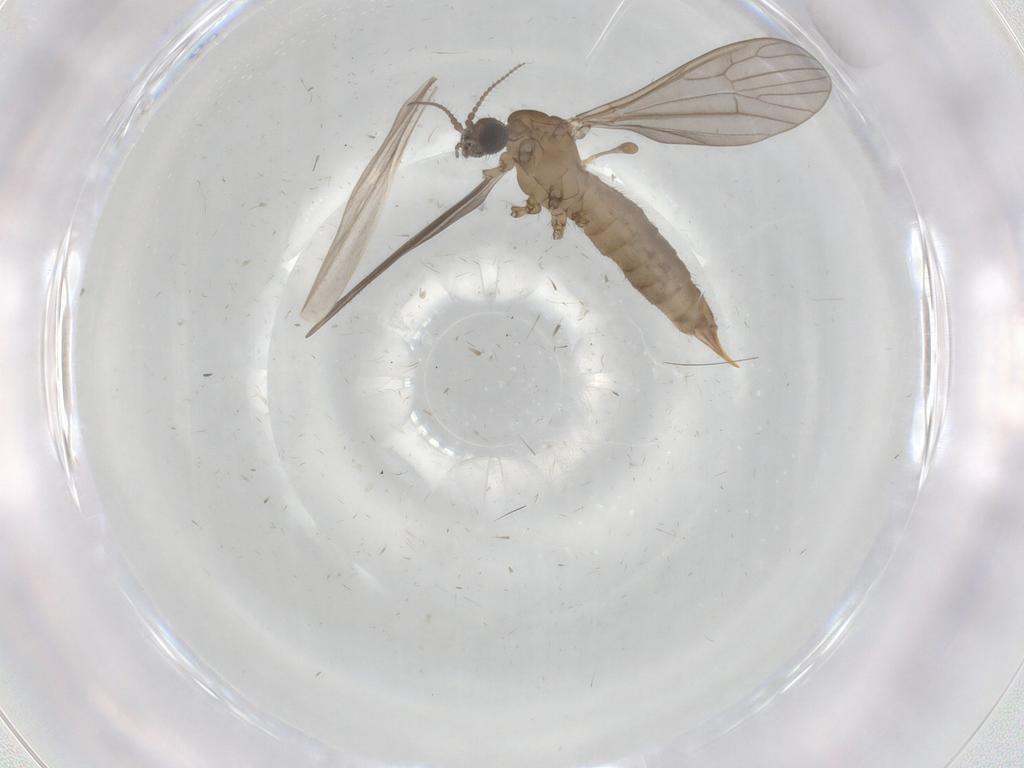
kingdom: Animalia
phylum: Arthropoda
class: Insecta
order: Diptera
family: Limoniidae
